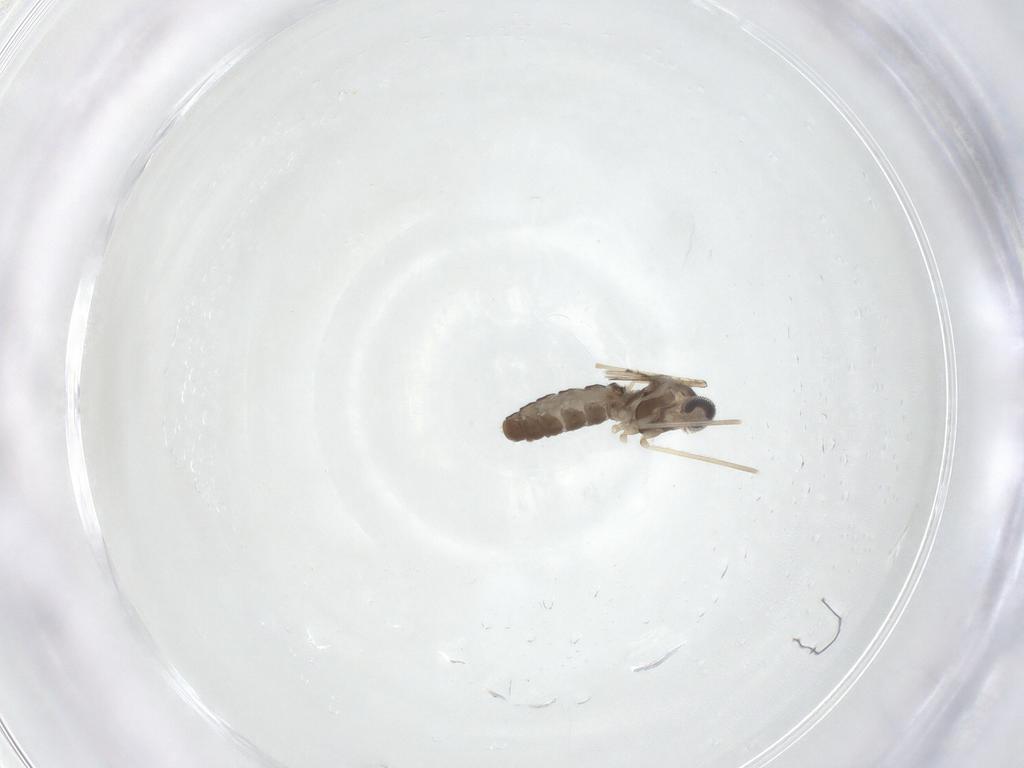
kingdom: Animalia
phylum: Arthropoda
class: Insecta
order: Diptera
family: Cecidomyiidae
